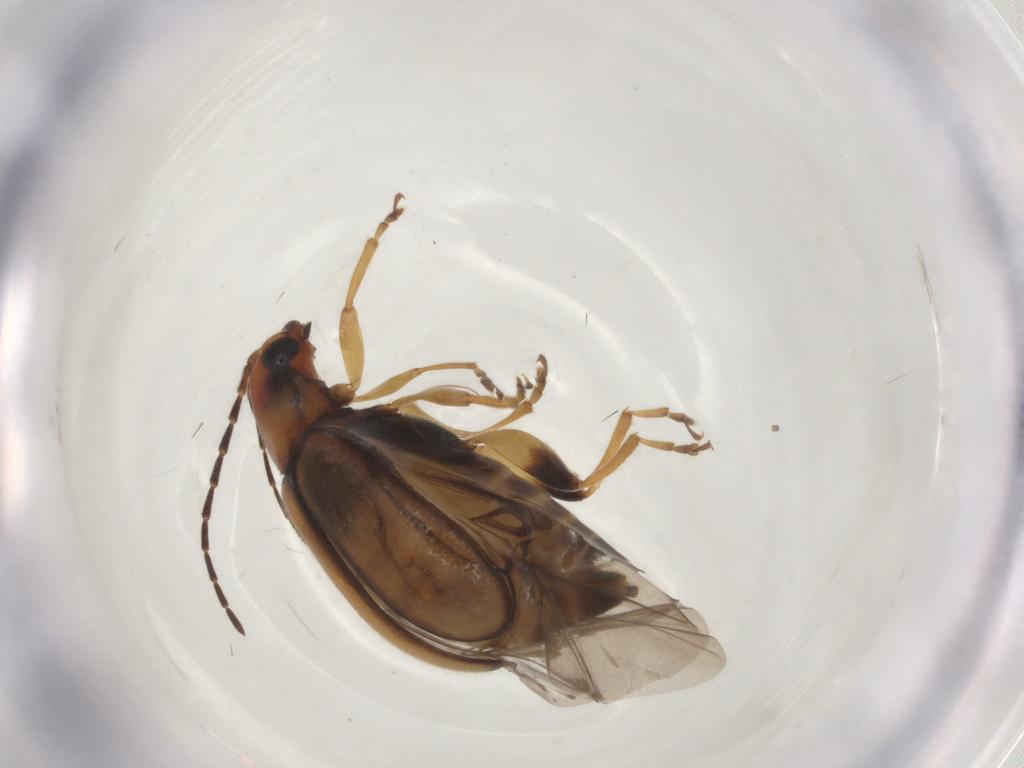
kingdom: Animalia
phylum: Arthropoda
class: Insecta
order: Coleoptera
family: Chrysomelidae
